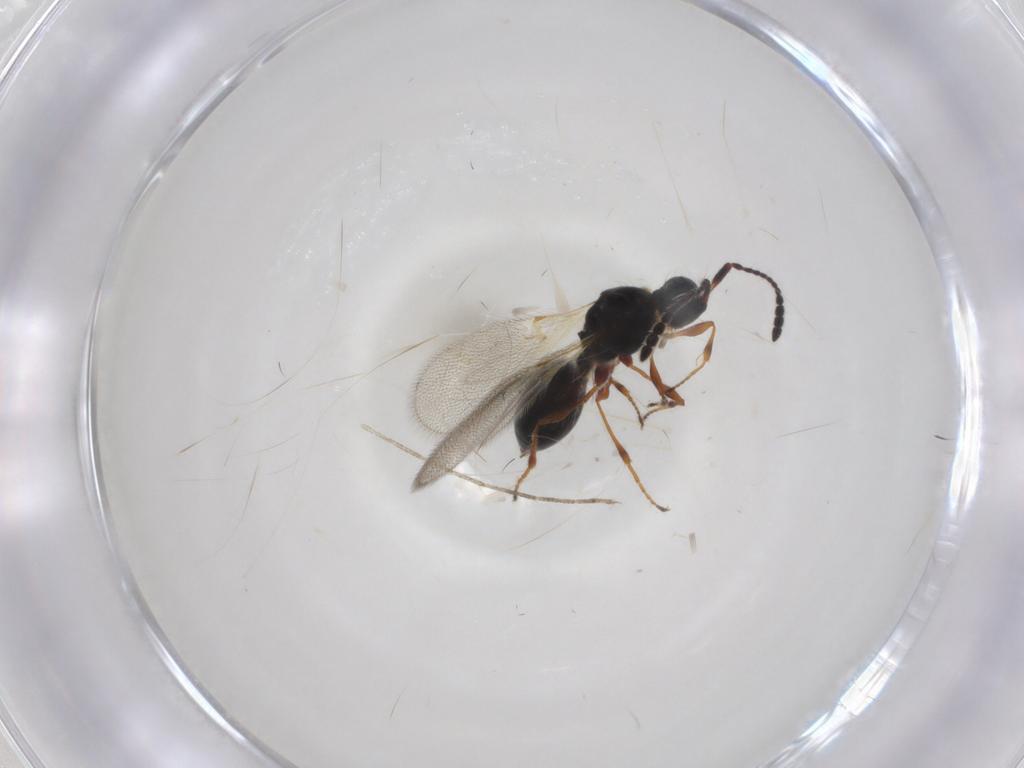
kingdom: Animalia
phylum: Arthropoda
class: Insecta
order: Hymenoptera
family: Diapriidae
